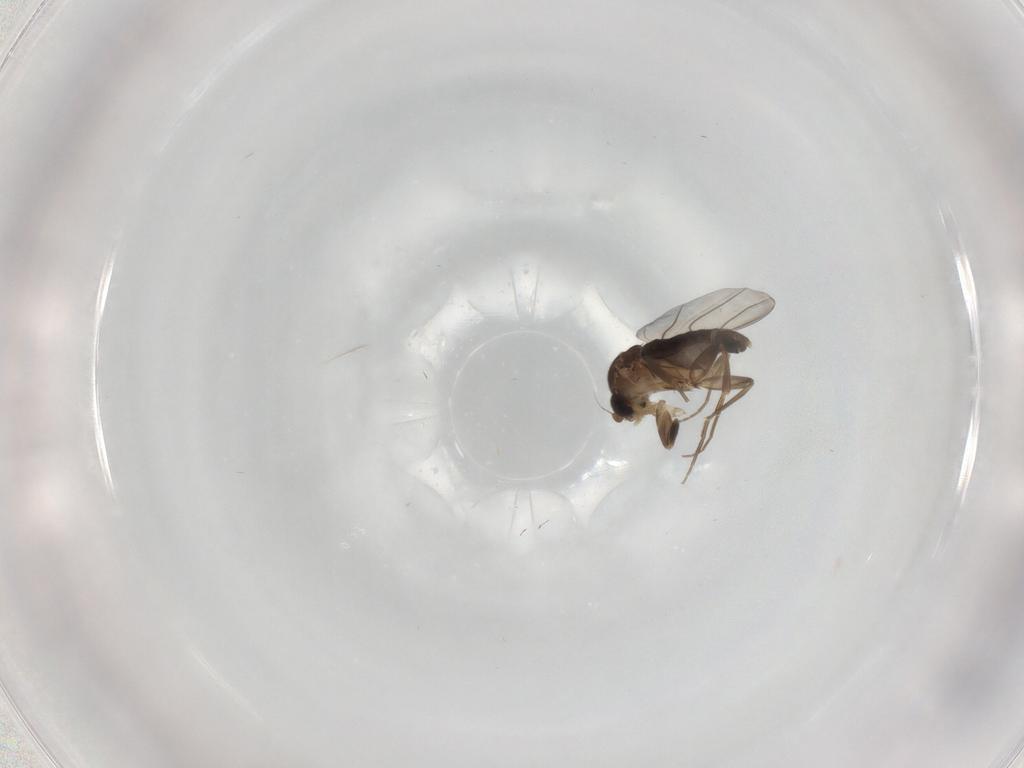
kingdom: Animalia
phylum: Arthropoda
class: Insecta
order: Diptera
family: Phoridae
